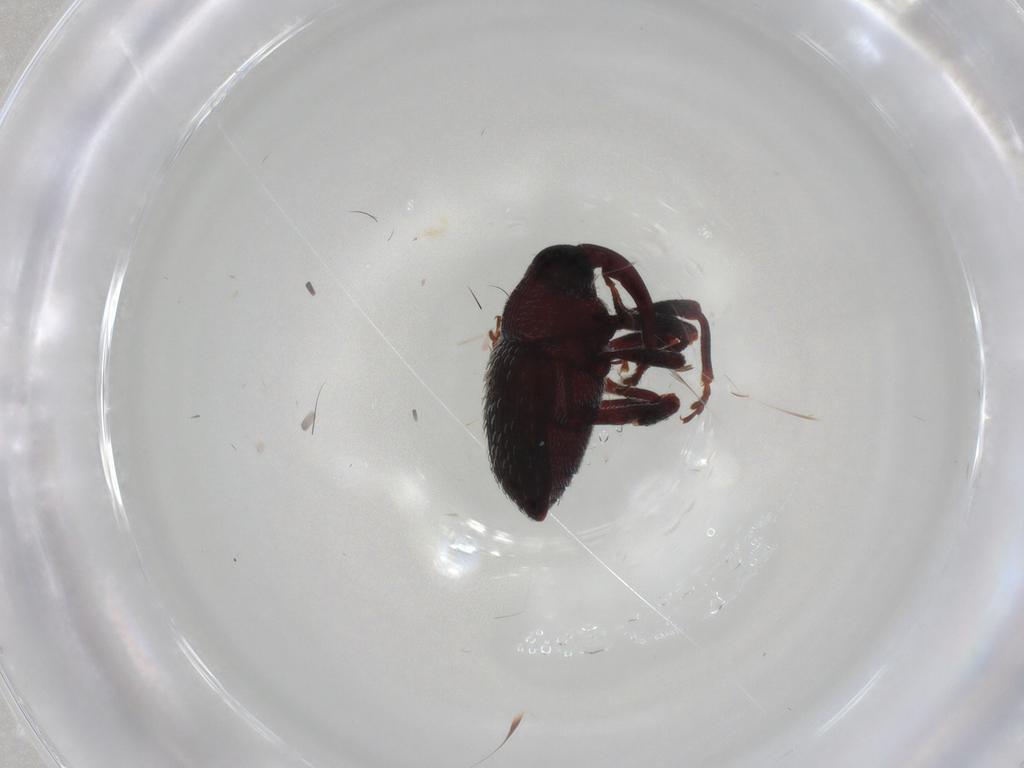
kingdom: Animalia
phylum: Arthropoda
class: Insecta
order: Coleoptera
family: Curculionidae
